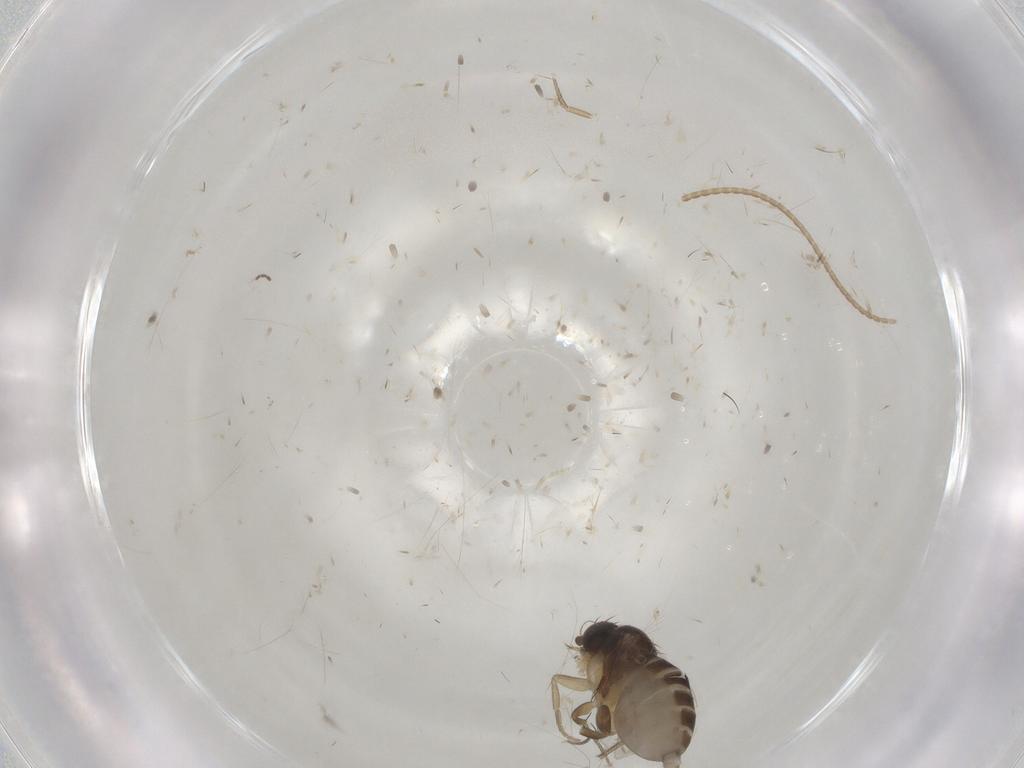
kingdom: Animalia
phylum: Arthropoda
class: Insecta
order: Diptera
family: Phoridae
